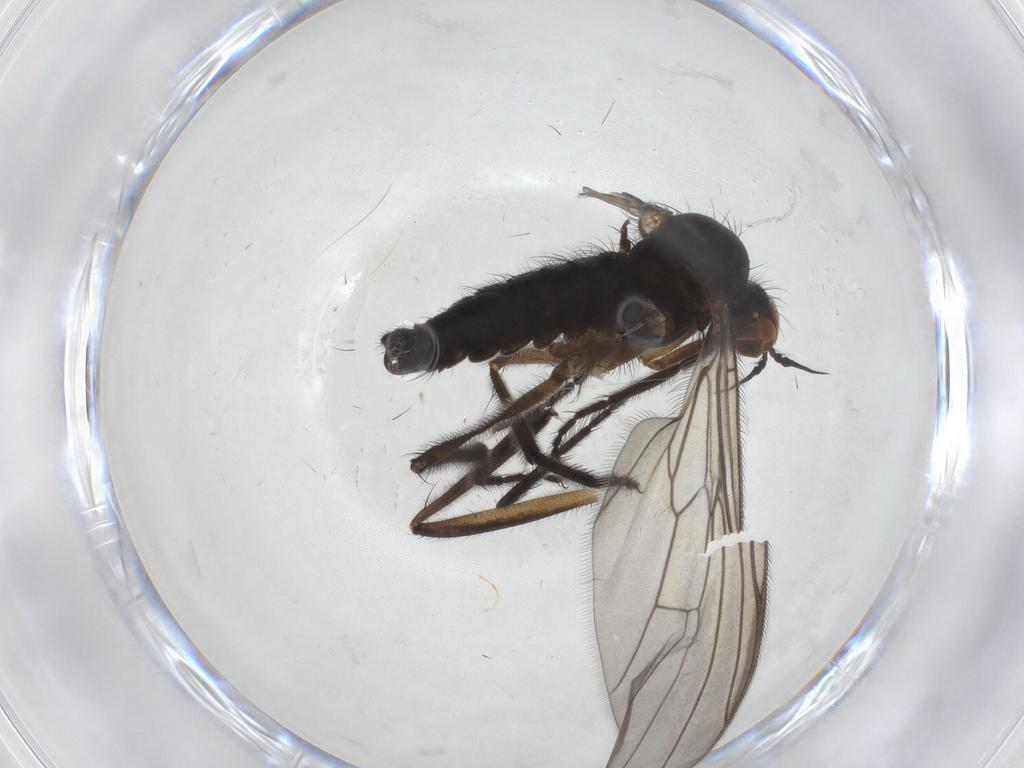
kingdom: Animalia
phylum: Arthropoda
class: Insecta
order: Diptera
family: Empididae
